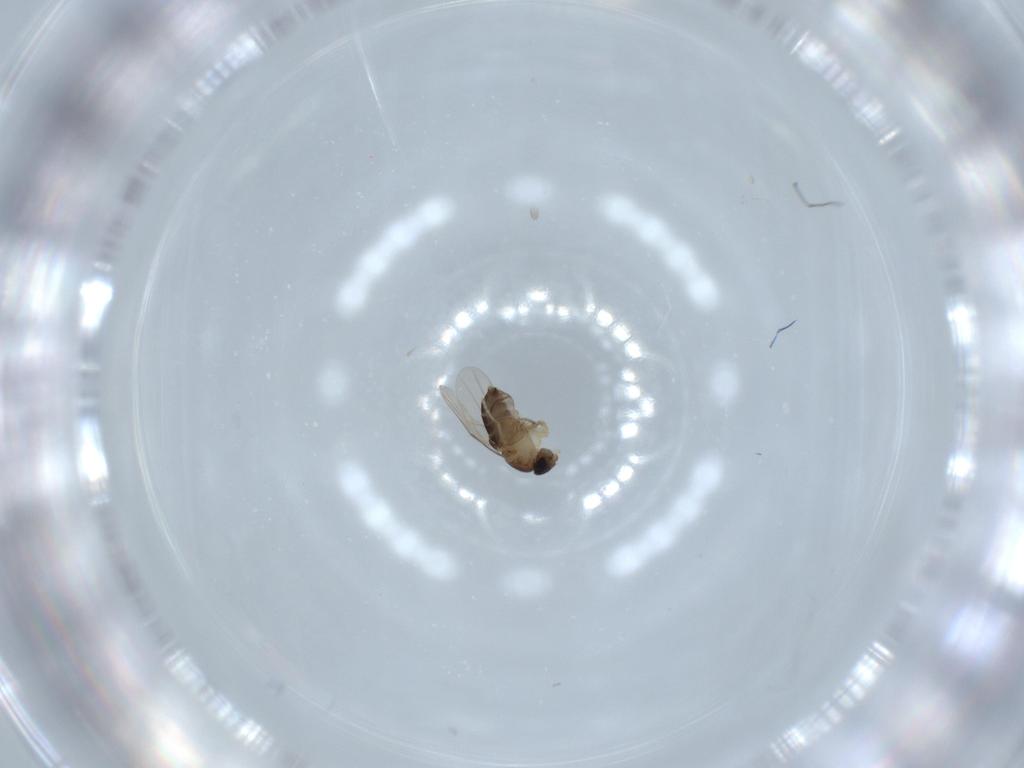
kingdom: Animalia
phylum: Arthropoda
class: Insecta
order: Diptera
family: Phoridae
